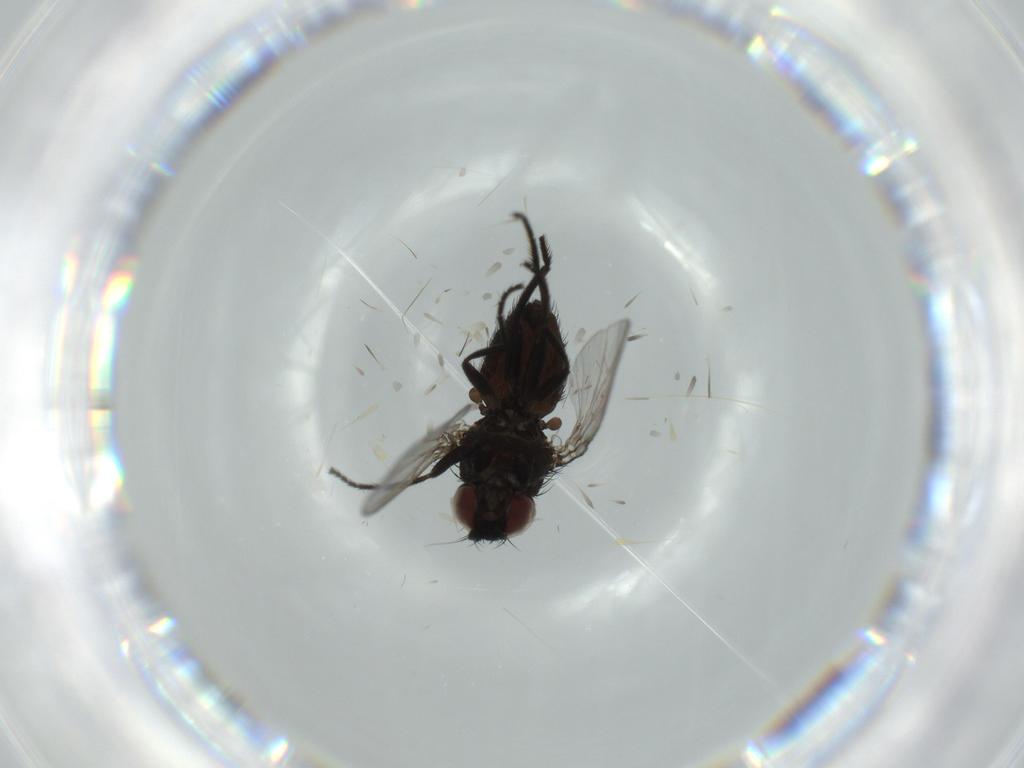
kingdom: Animalia
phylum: Arthropoda
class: Insecta
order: Diptera
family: Ceratopogonidae
